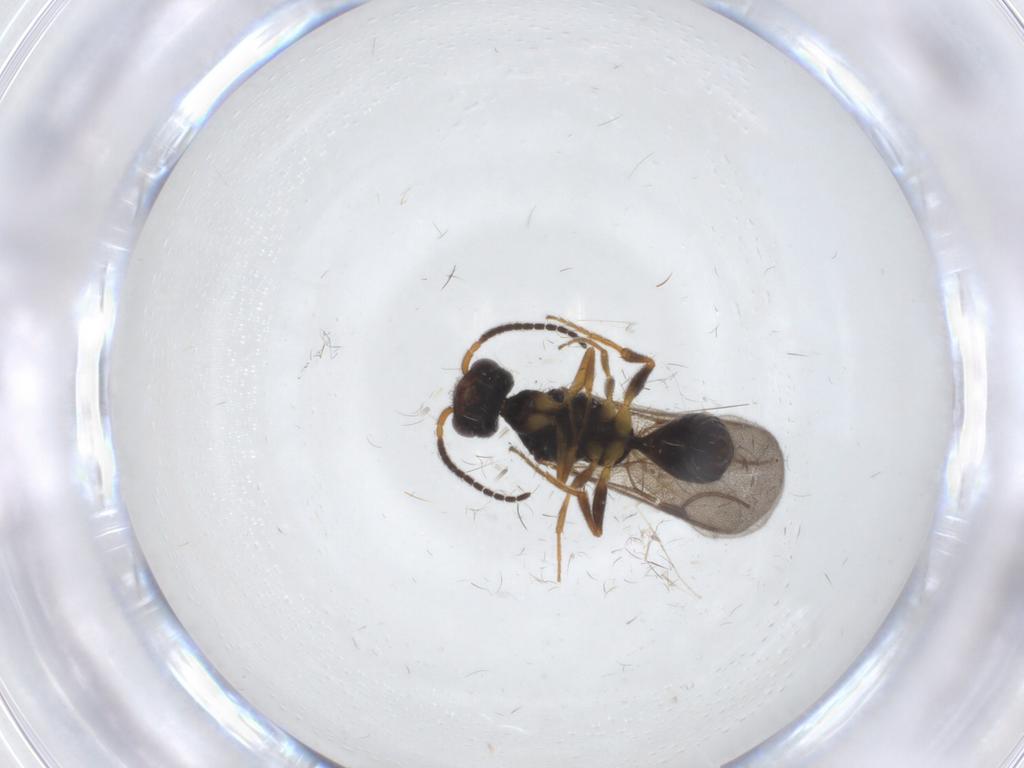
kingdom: Animalia
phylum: Arthropoda
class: Insecta
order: Hymenoptera
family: Bethylidae
